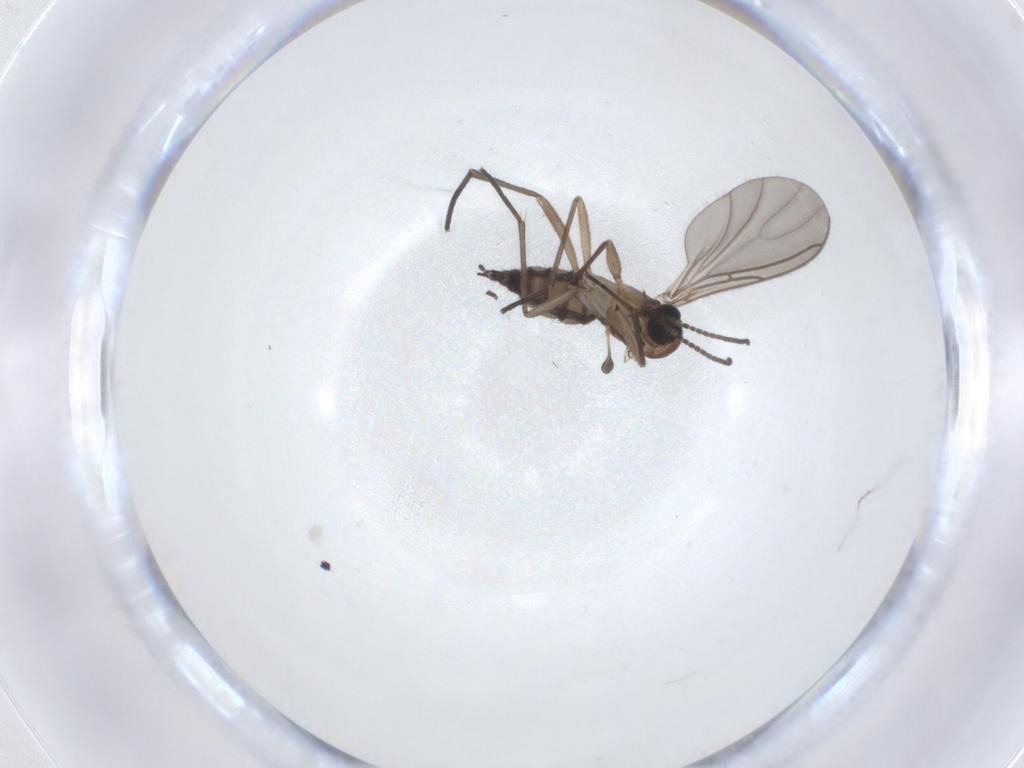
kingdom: Animalia
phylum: Arthropoda
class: Insecta
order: Diptera
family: Sciaridae
